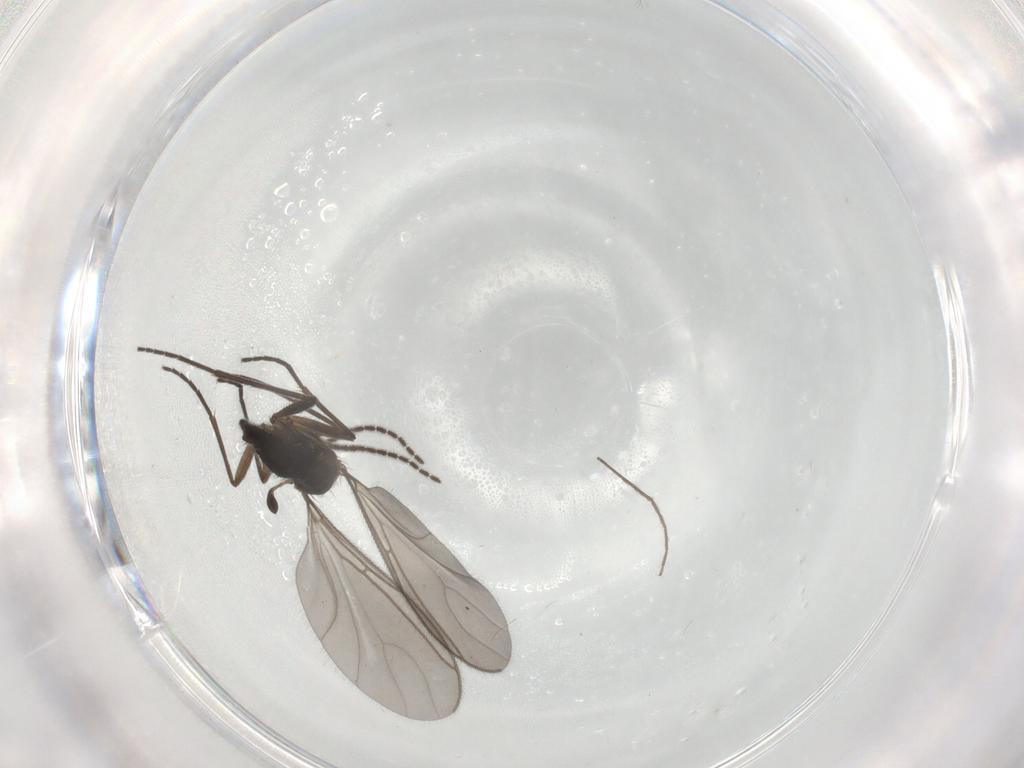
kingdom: Animalia
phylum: Arthropoda
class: Insecta
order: Diptera
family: Sciaridae
